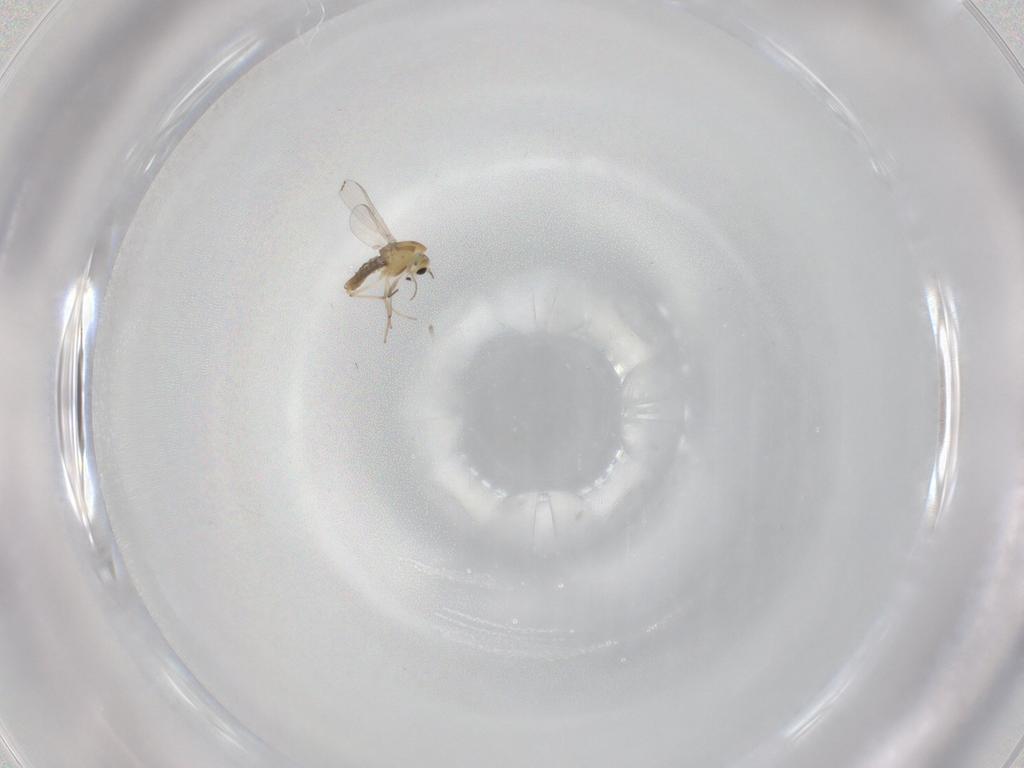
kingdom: Animalia
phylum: Arthropoda
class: Insecta
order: Diptera
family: Chironomidae
